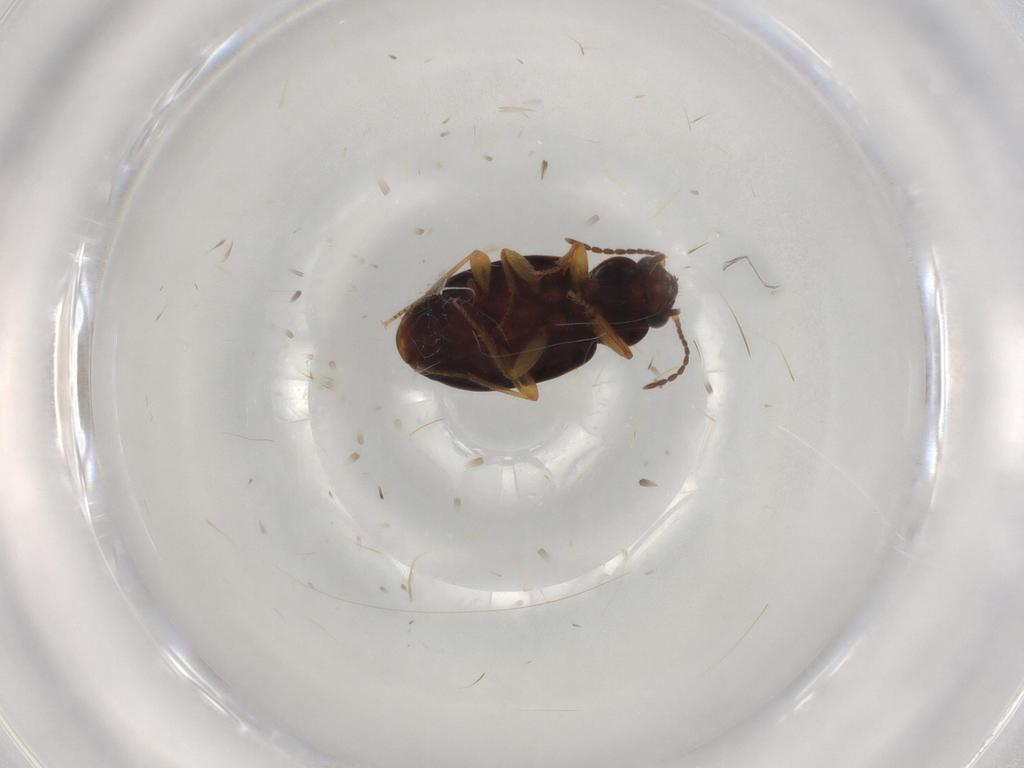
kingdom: Animalia
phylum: Arthropoda
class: Insecta
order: Coleoptera
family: Carabidae
